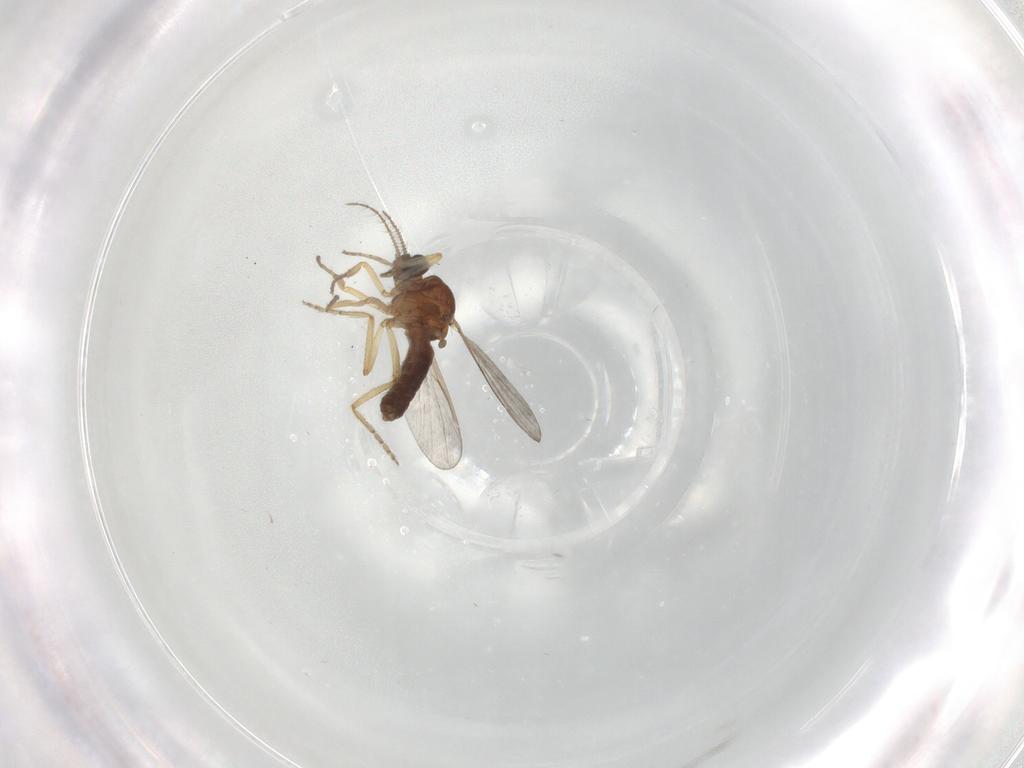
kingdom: Animalia
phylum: Arthropoda
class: Insecta
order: Diptera
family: Ceratopogonidae
